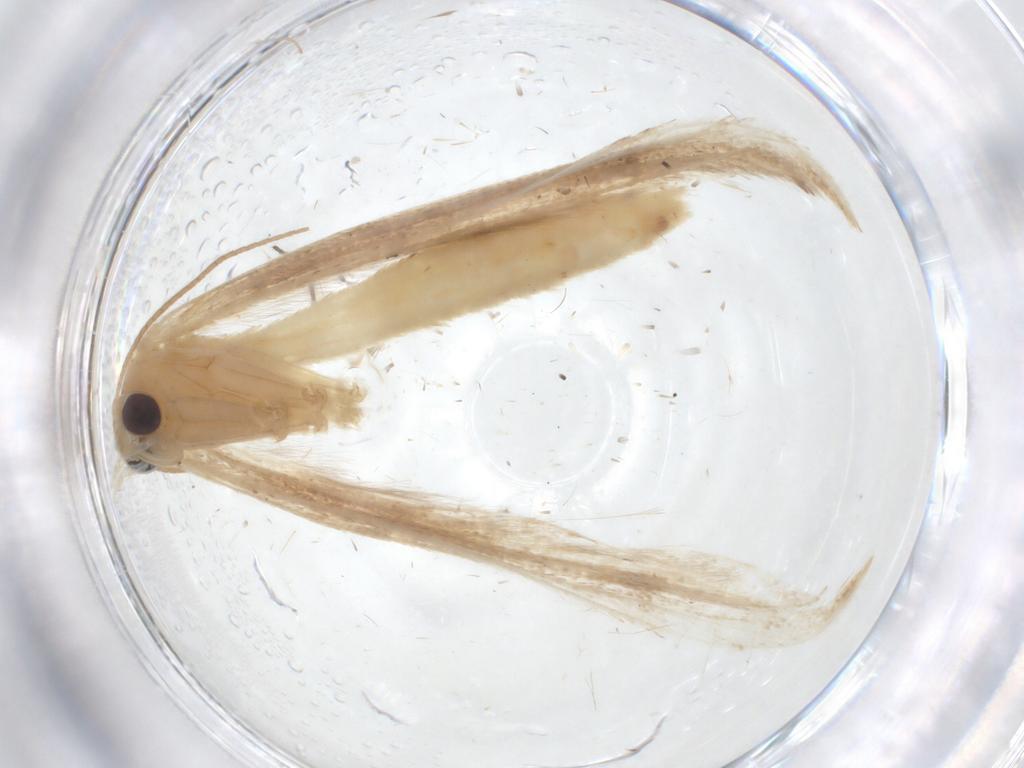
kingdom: Animalia
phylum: Arthropoda
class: Insecta
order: Lepidoptera
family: Pterophoridae
